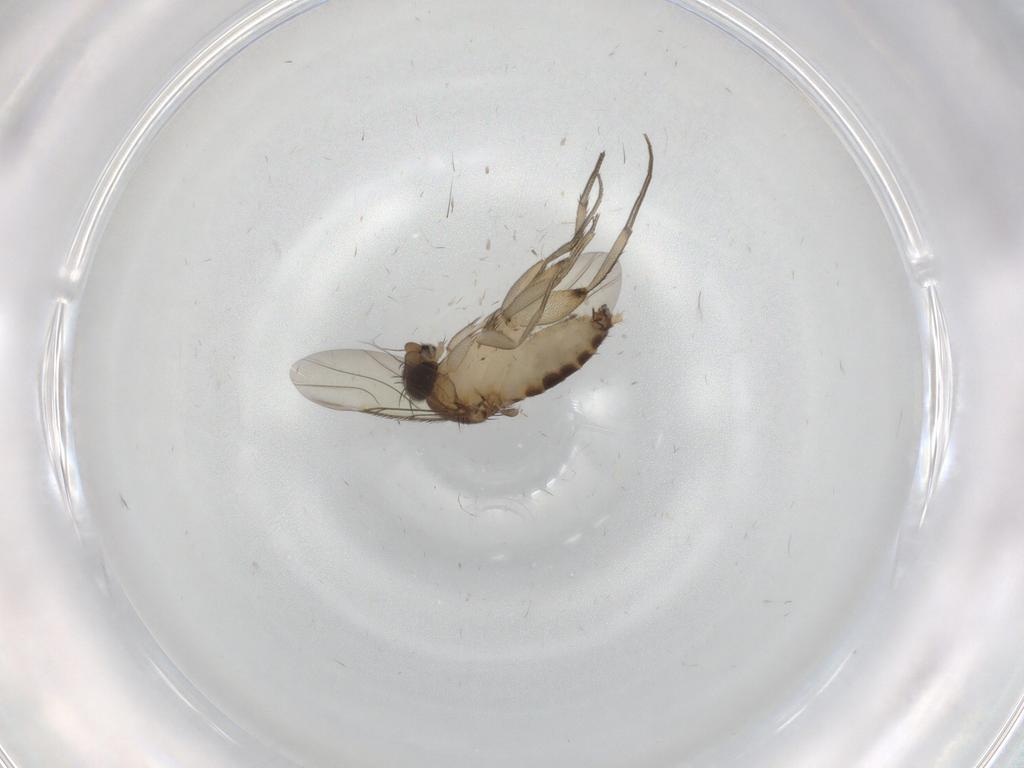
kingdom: Animalia
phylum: Arthropoda
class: Insecta
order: Diptera
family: Phoridae
